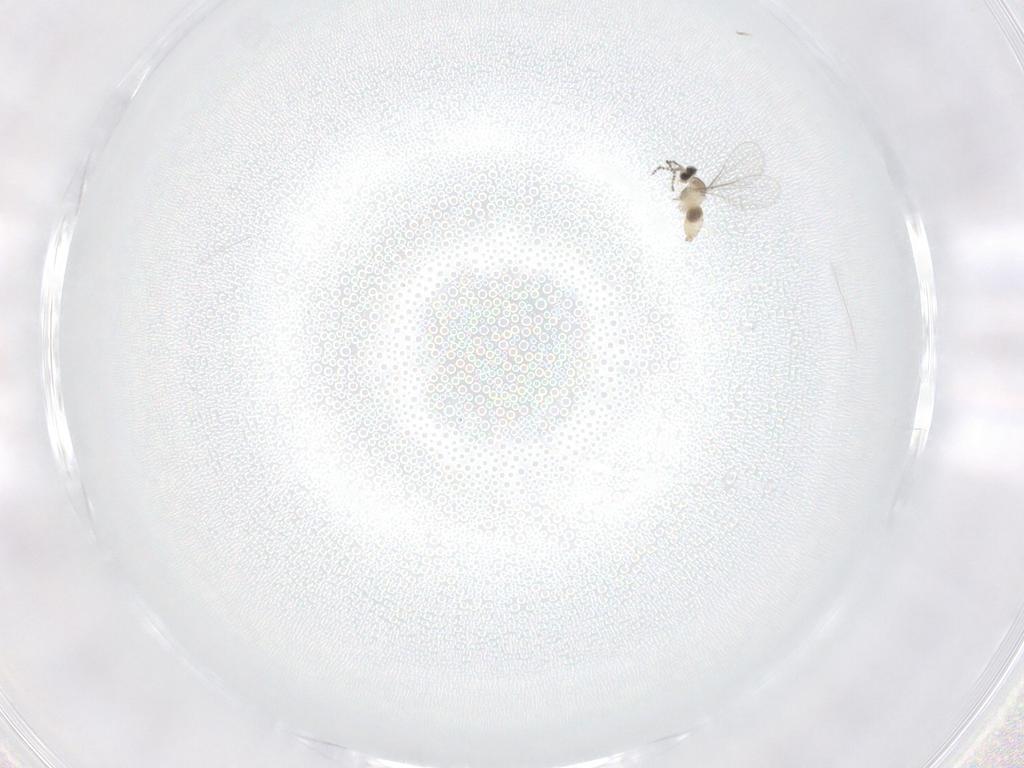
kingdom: Animalia
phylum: Arthropoda
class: Insecta
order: Diptera
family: Cecidomyiidae
